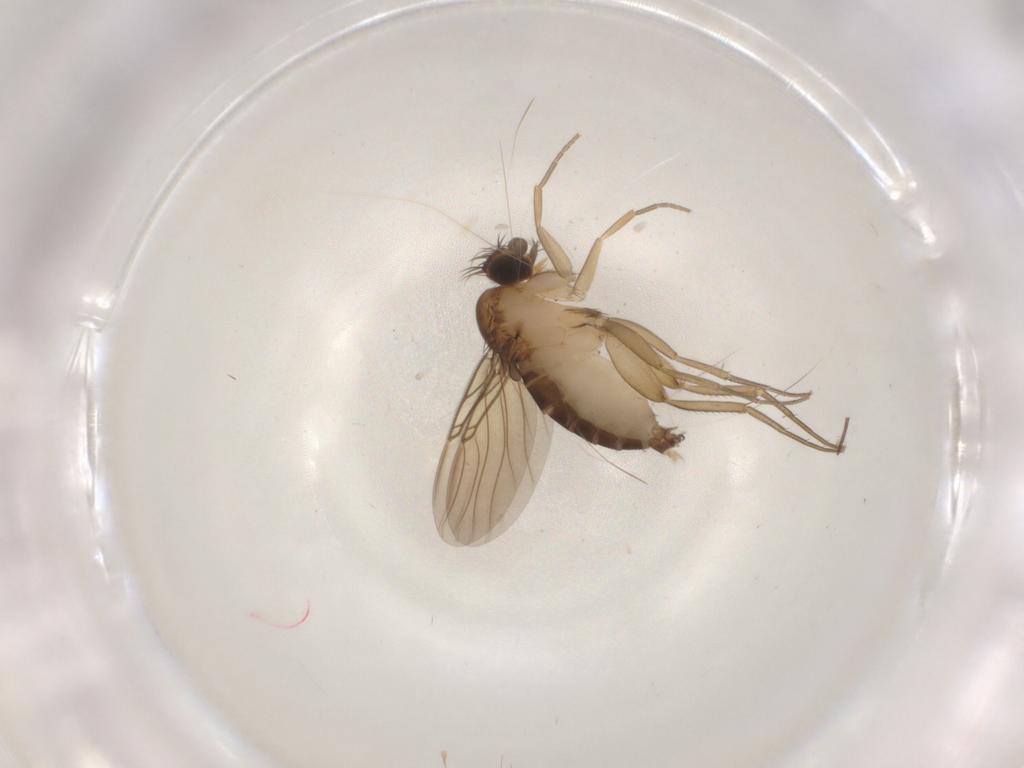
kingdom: Animalia
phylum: Arthropoda
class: Insecta
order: Diptera
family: Phoridae
